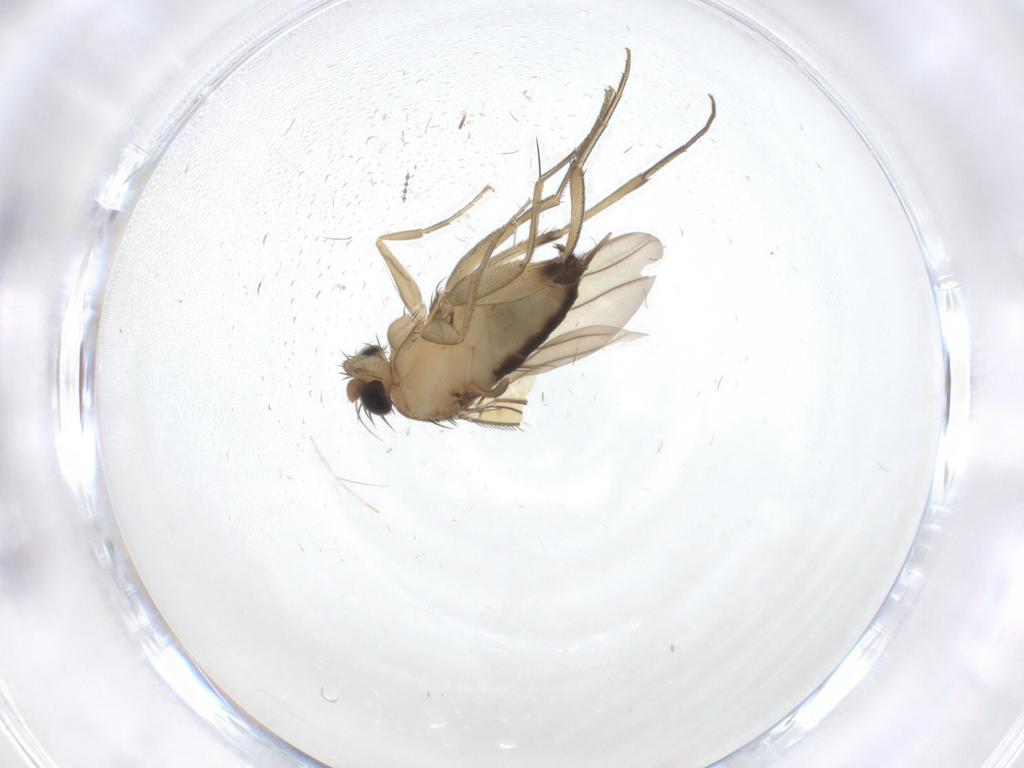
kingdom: Animalia
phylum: Arthropoda
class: Insecta
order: Diptera
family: Phoridae
